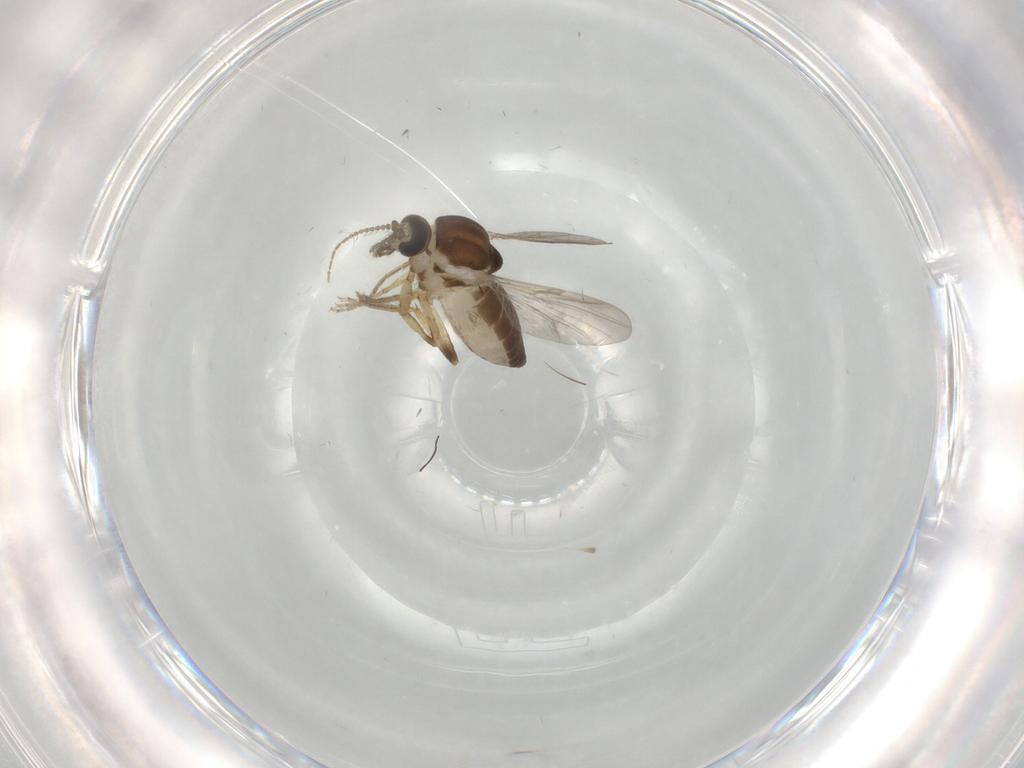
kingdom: Animalia
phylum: Arthropoda
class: Insecta
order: Diptera
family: Ceratopogonidae
